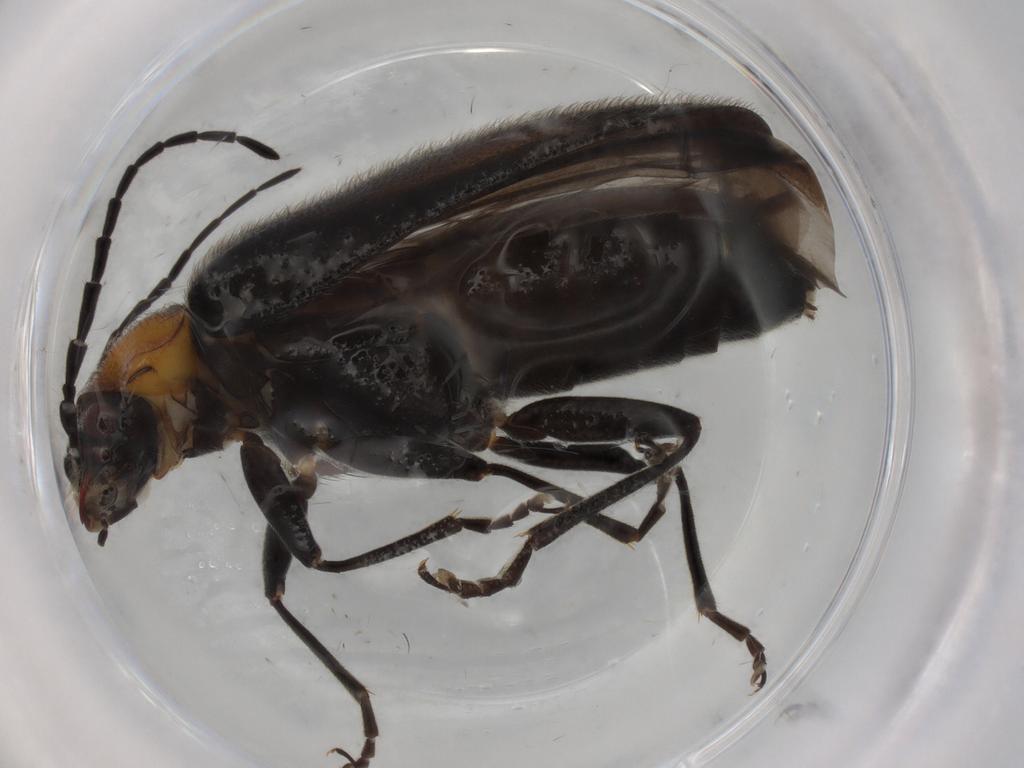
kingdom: Animalia
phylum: Arthropoda
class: Insecta
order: Coleoptera
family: Cantharidae
